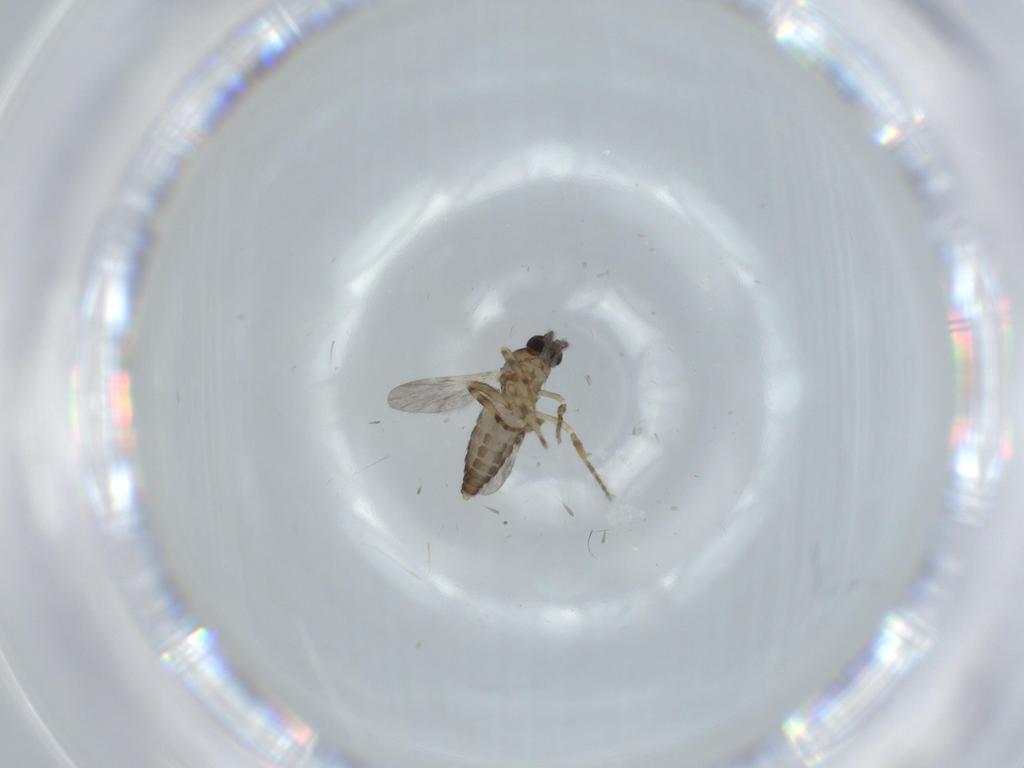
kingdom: Animalia
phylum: Arthropoda
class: Insecta
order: Diptera
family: Ceratopogonidae
